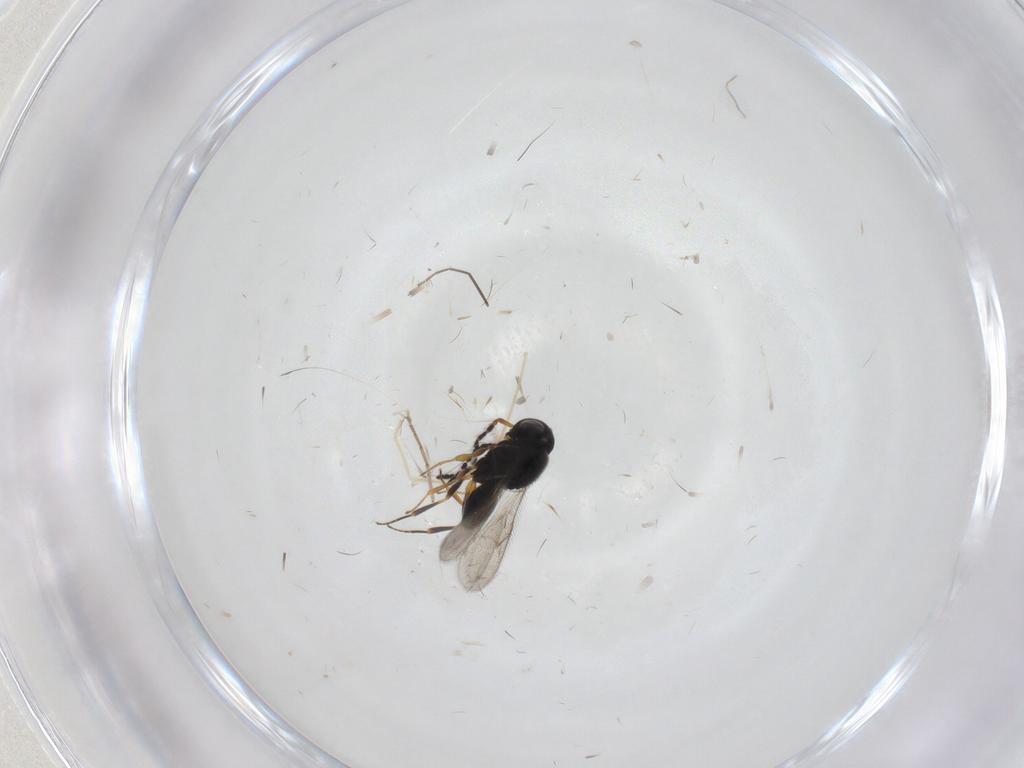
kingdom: Animalia
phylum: Arthropoda
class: Insecta
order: Hymenoptera
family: Scelionidae
